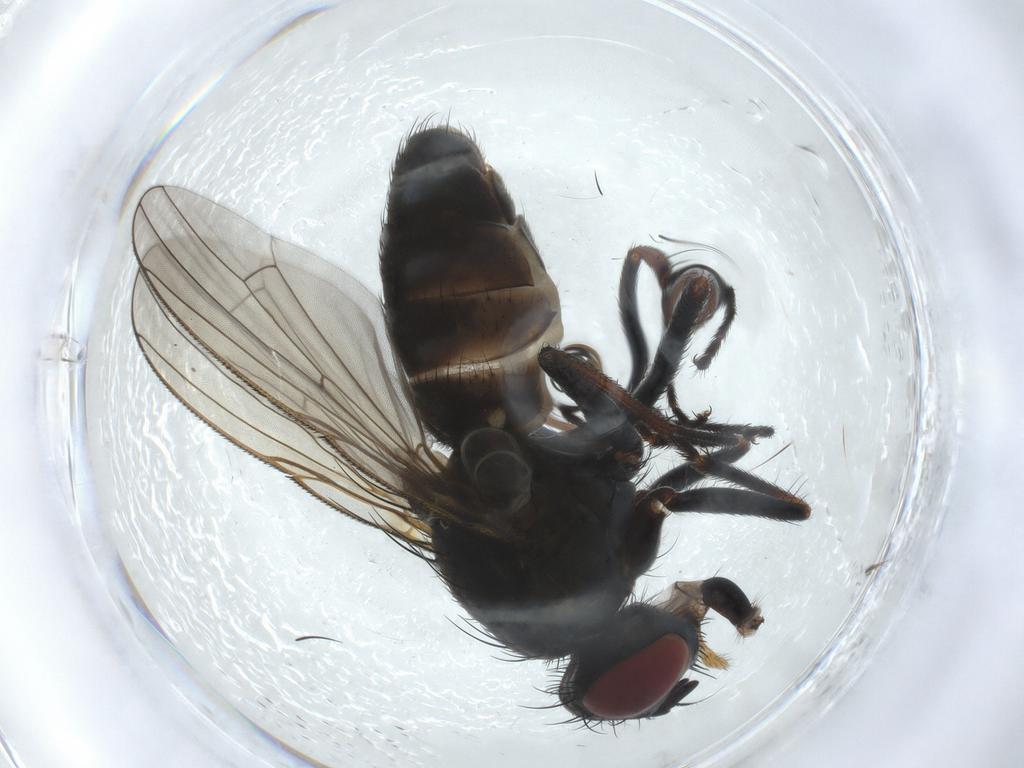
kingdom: Animalia
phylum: Arthropoda
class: Insecta
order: Diptera
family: Muscidae
